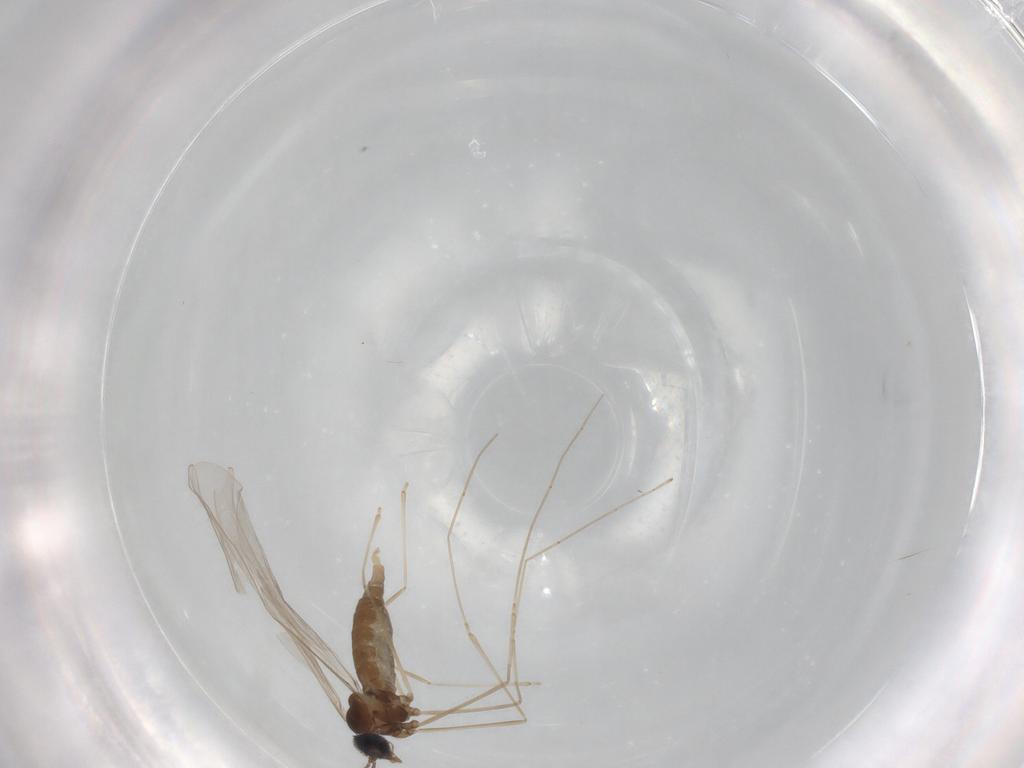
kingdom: Animalia
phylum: Arthropoda
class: Insecta
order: Diptera
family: Cecidomyiidae
